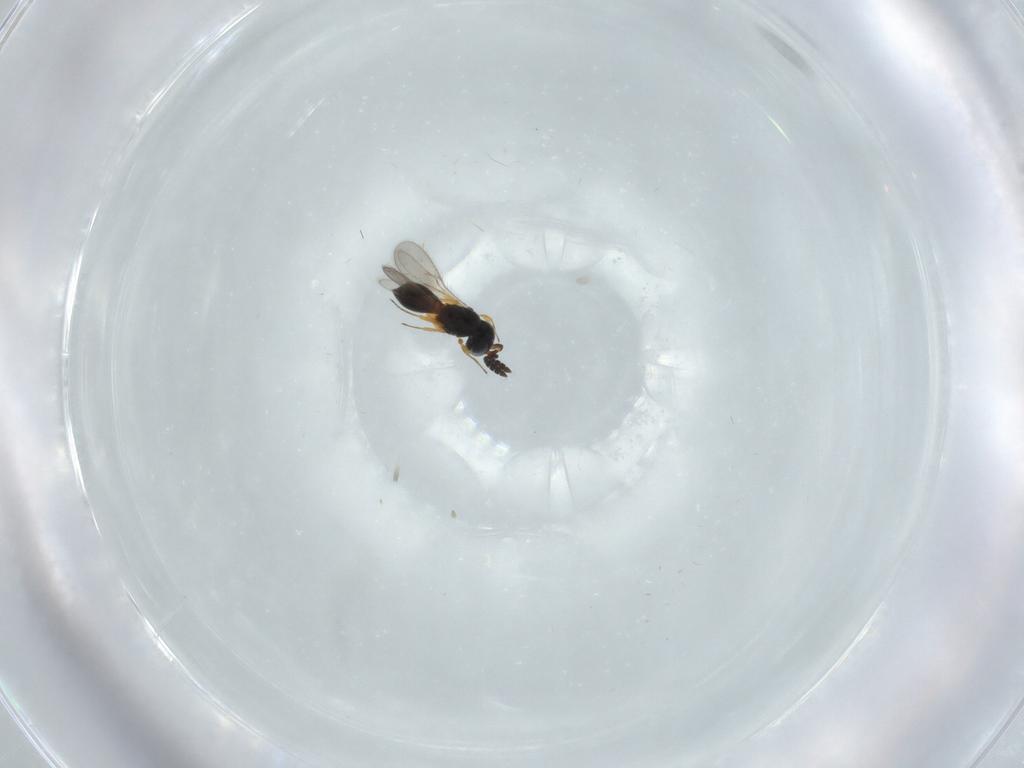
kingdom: Animalia
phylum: Arthropoda
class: Insecta
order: Hymenoptera
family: Scelionidae
